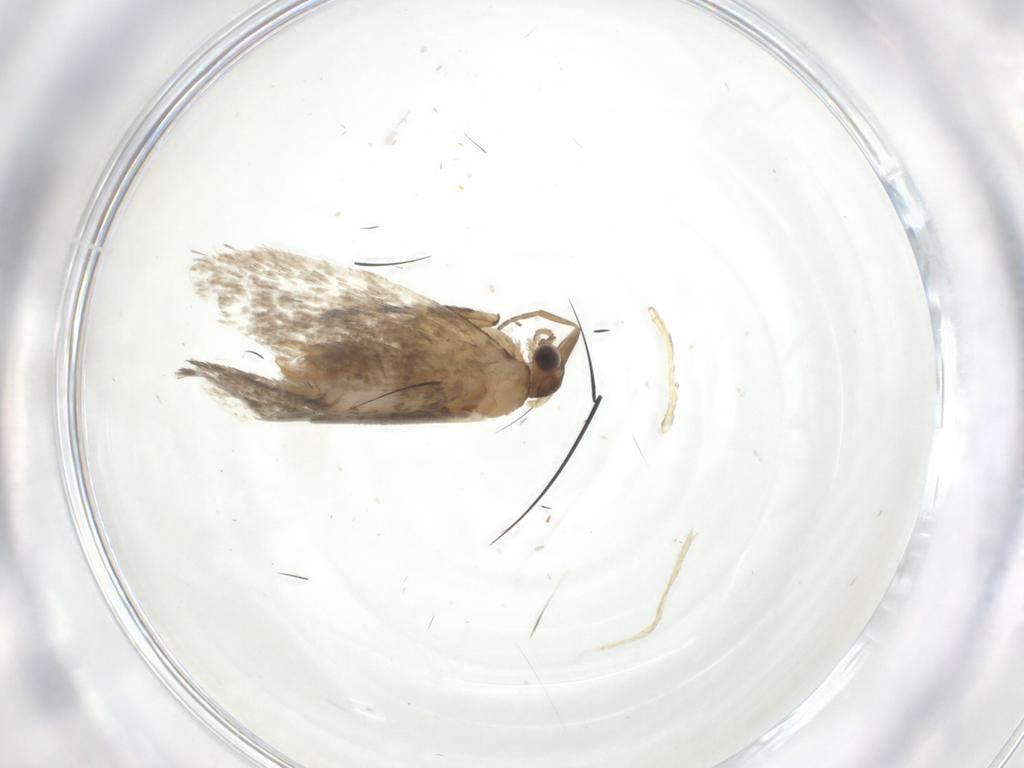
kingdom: Animalia
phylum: Arthropoda
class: Insecta
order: Lepidoptera
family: Dryadaulidae
